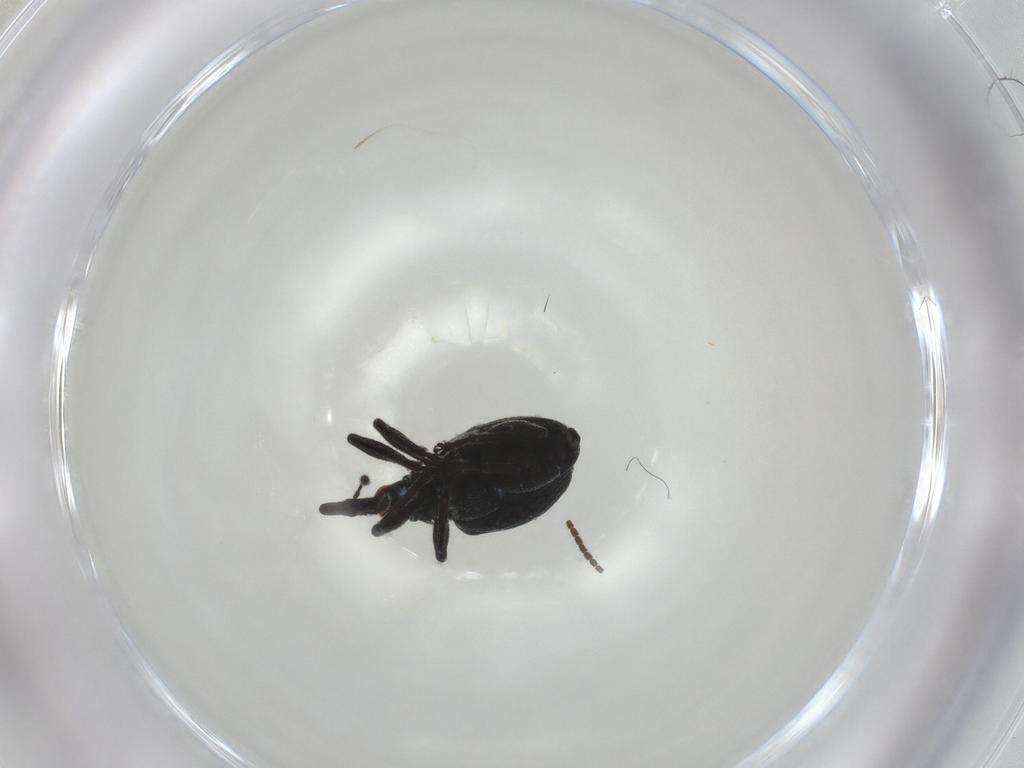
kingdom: Animalia
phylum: Arthropoda
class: Insecta
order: Coleoptera
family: Brentidae
